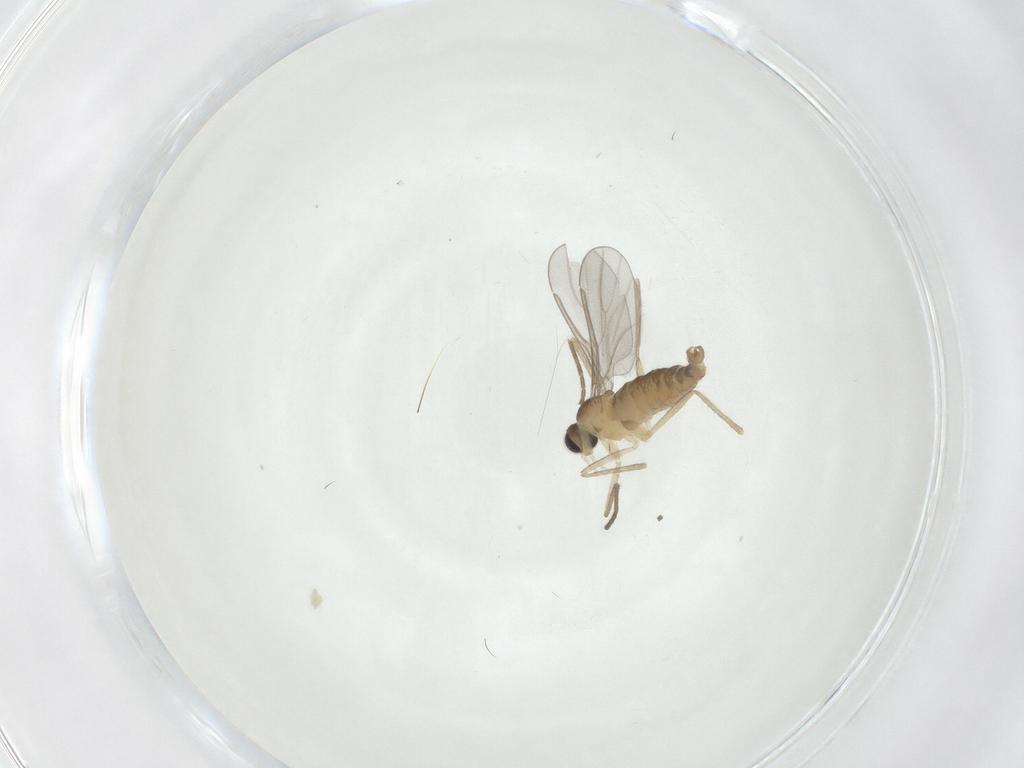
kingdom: Animalia
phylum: Arthropoda
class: Insecta
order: Diptera
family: Cecidomyiidae
